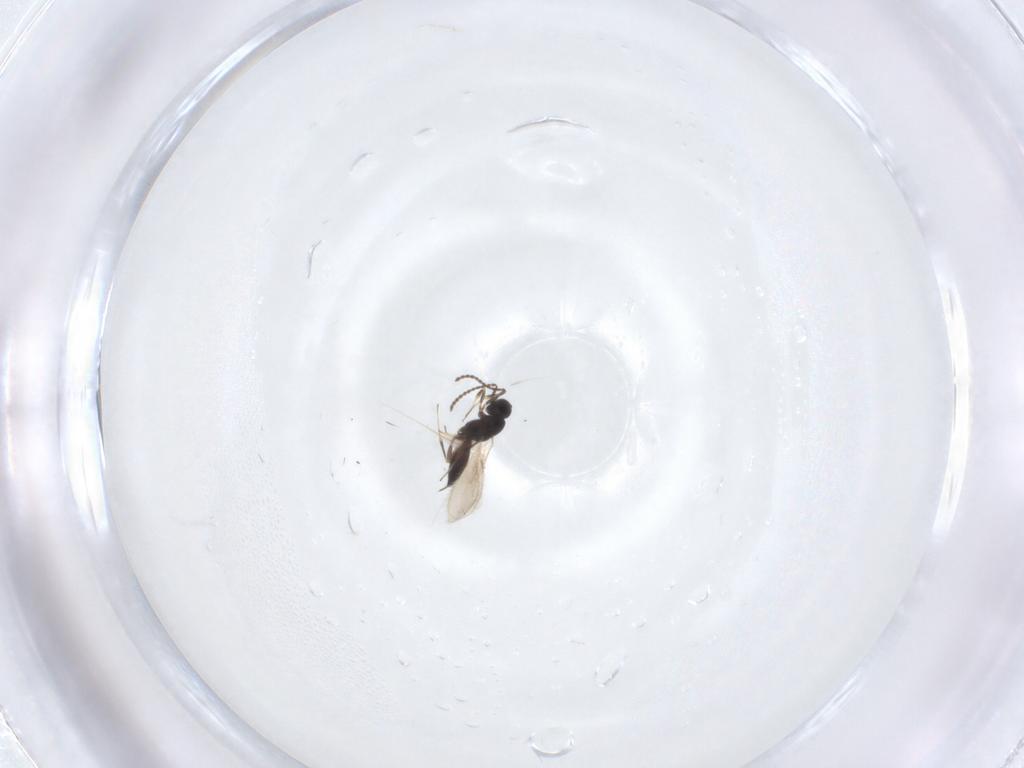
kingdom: Animalia
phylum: Arthropoda
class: Insecta
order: Hymenoptera
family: Scelionidae
